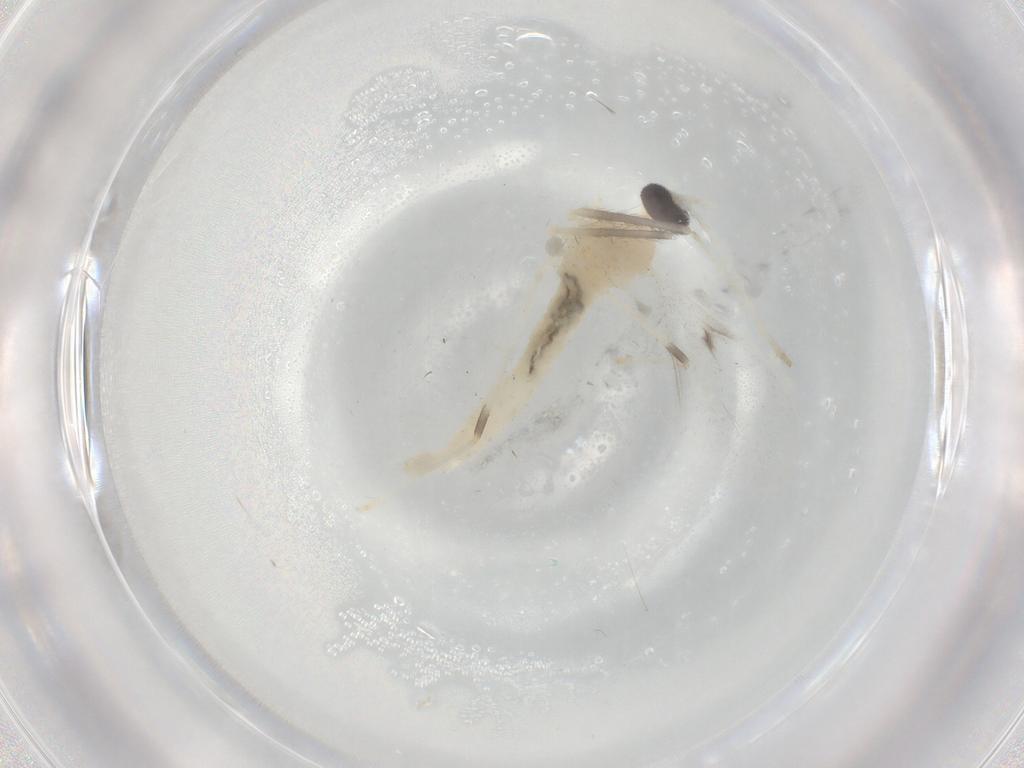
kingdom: Animalia
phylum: Arthropoda
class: Insecta
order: Diptera
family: Cecidomyiidae
